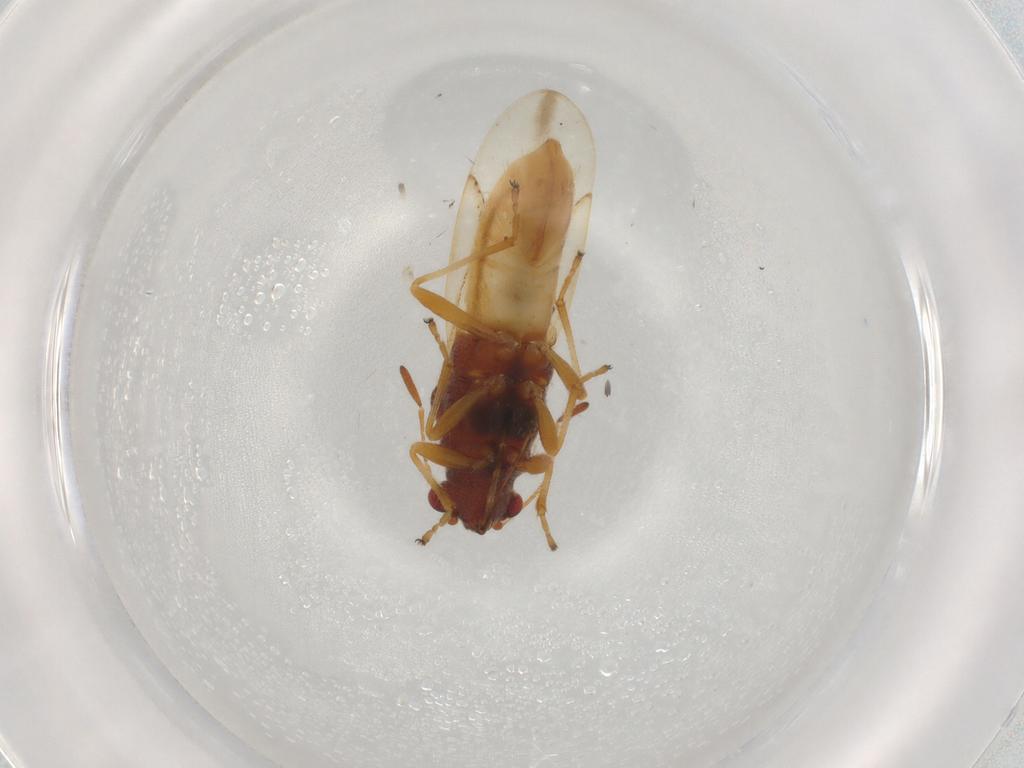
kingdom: Animalia
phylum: Arthropoda
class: Insecta
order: Hemiptera
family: Coreidae
